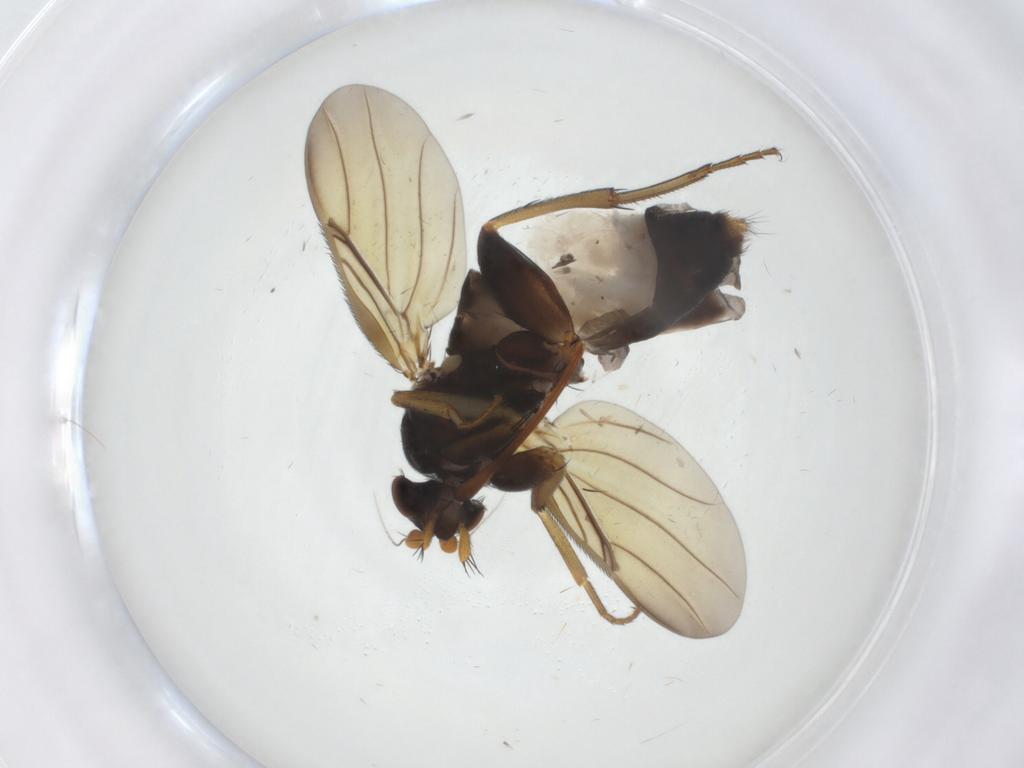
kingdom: Animalia
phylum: Arthropoda
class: Insecta
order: Diptera
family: Phoridae
